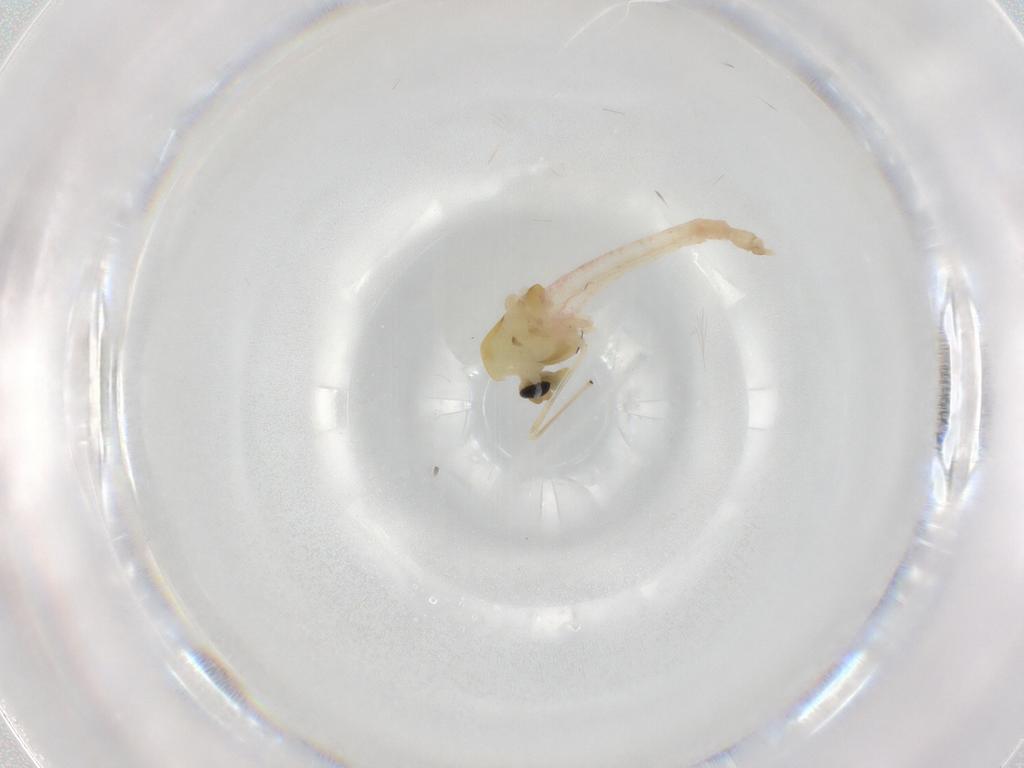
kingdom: Animalia
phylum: Arthropoda
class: Insecta
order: Diptera
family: Chironomidae
